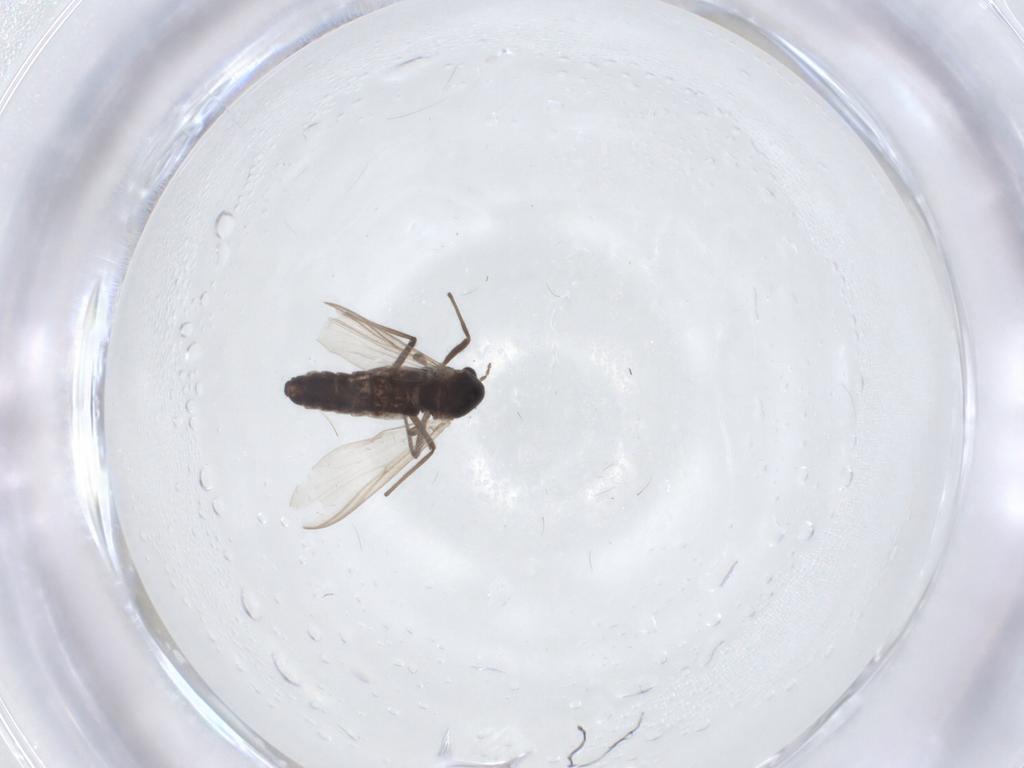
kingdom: Animalia
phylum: Arthropoda
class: Insecta
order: Diptera
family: Chironomidae
